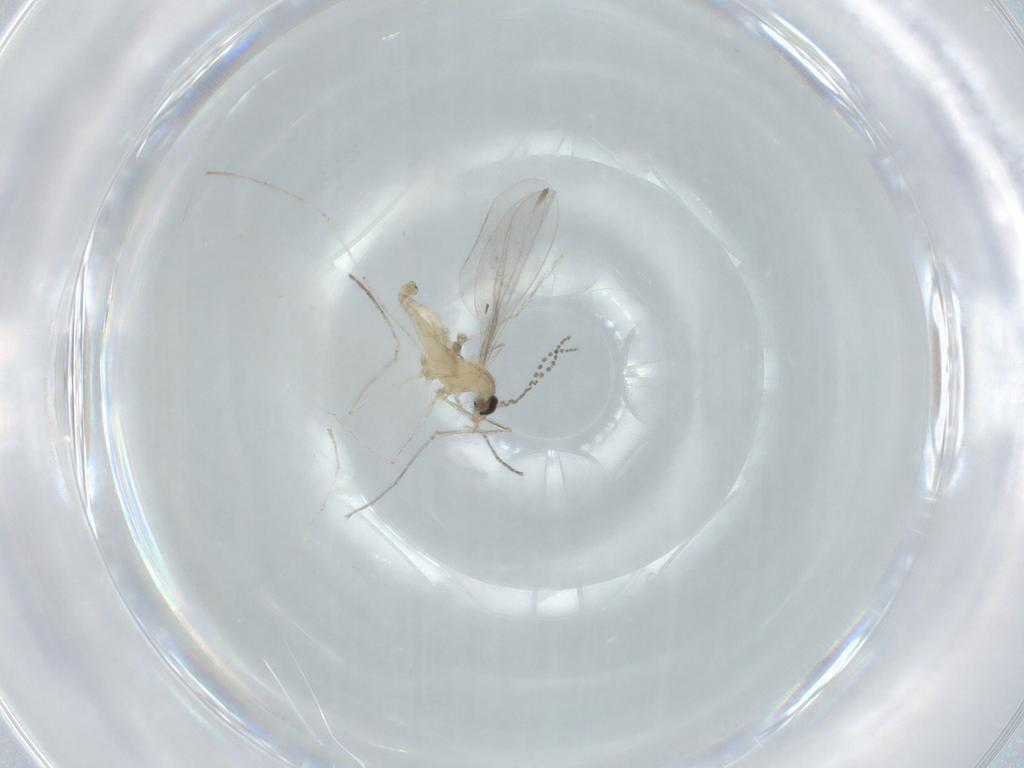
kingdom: Animalia
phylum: Arthropoda
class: Insecta
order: Diptera
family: Cecidomyiidae
